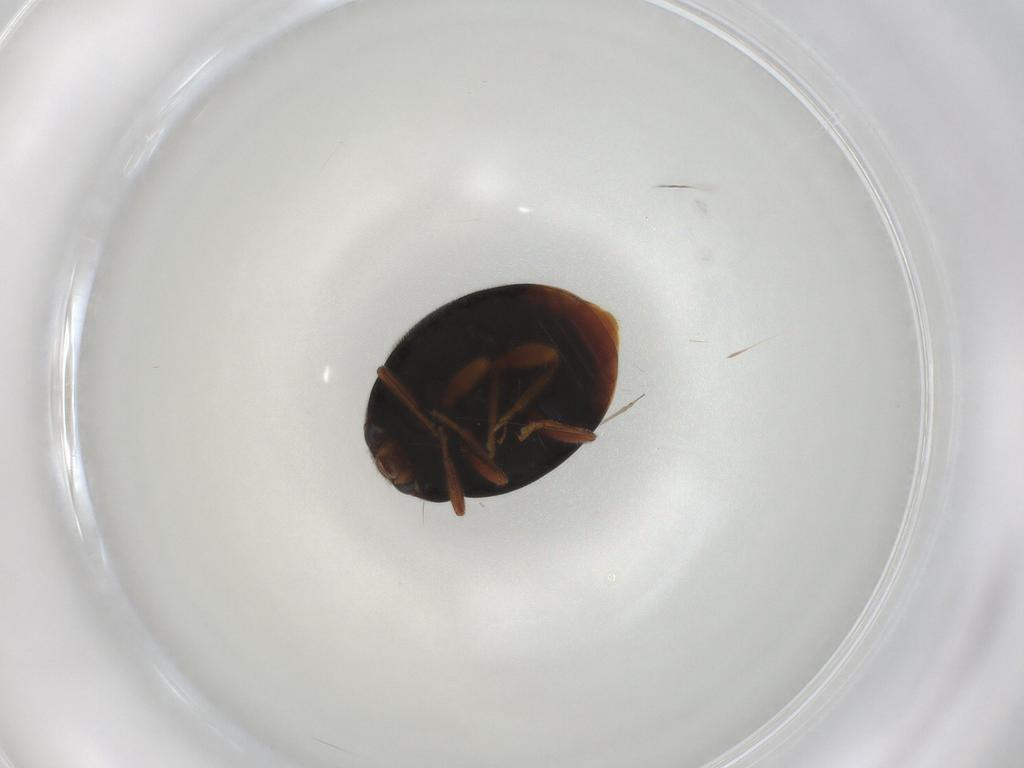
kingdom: Animalia
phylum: Arthropoda
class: Insecta
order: Coleoptera
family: Coccinellidae
